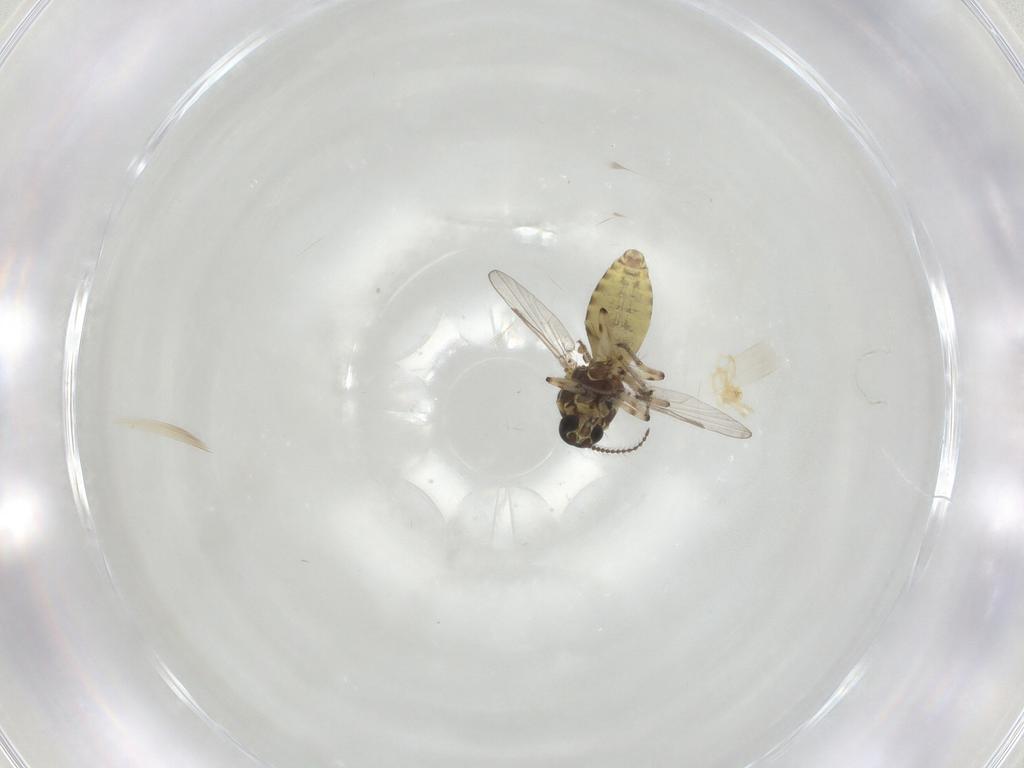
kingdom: Animalia
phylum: Arthropoda
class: Insecta
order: Diptera
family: Ceratopogonidae
